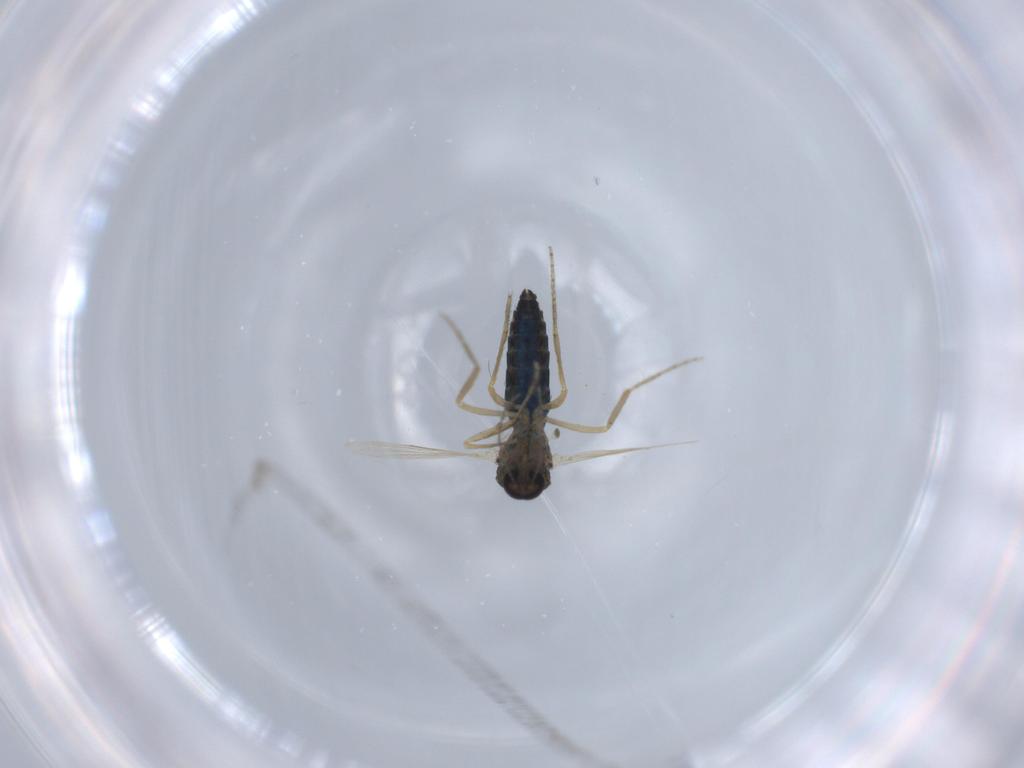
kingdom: Animalia
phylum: Arthropoda
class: Insecta
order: Diptera
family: Ceratopogonidae
